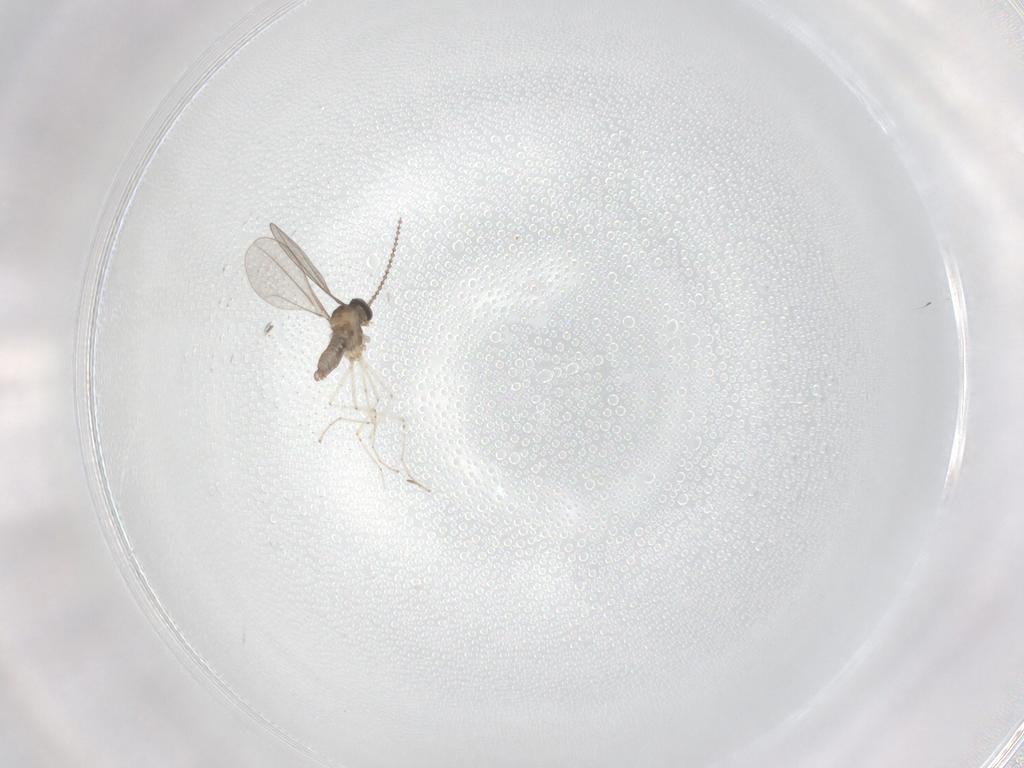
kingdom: Animalia
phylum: Arthropoda
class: Insecta
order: Diptera
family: Cecidomyiidae
